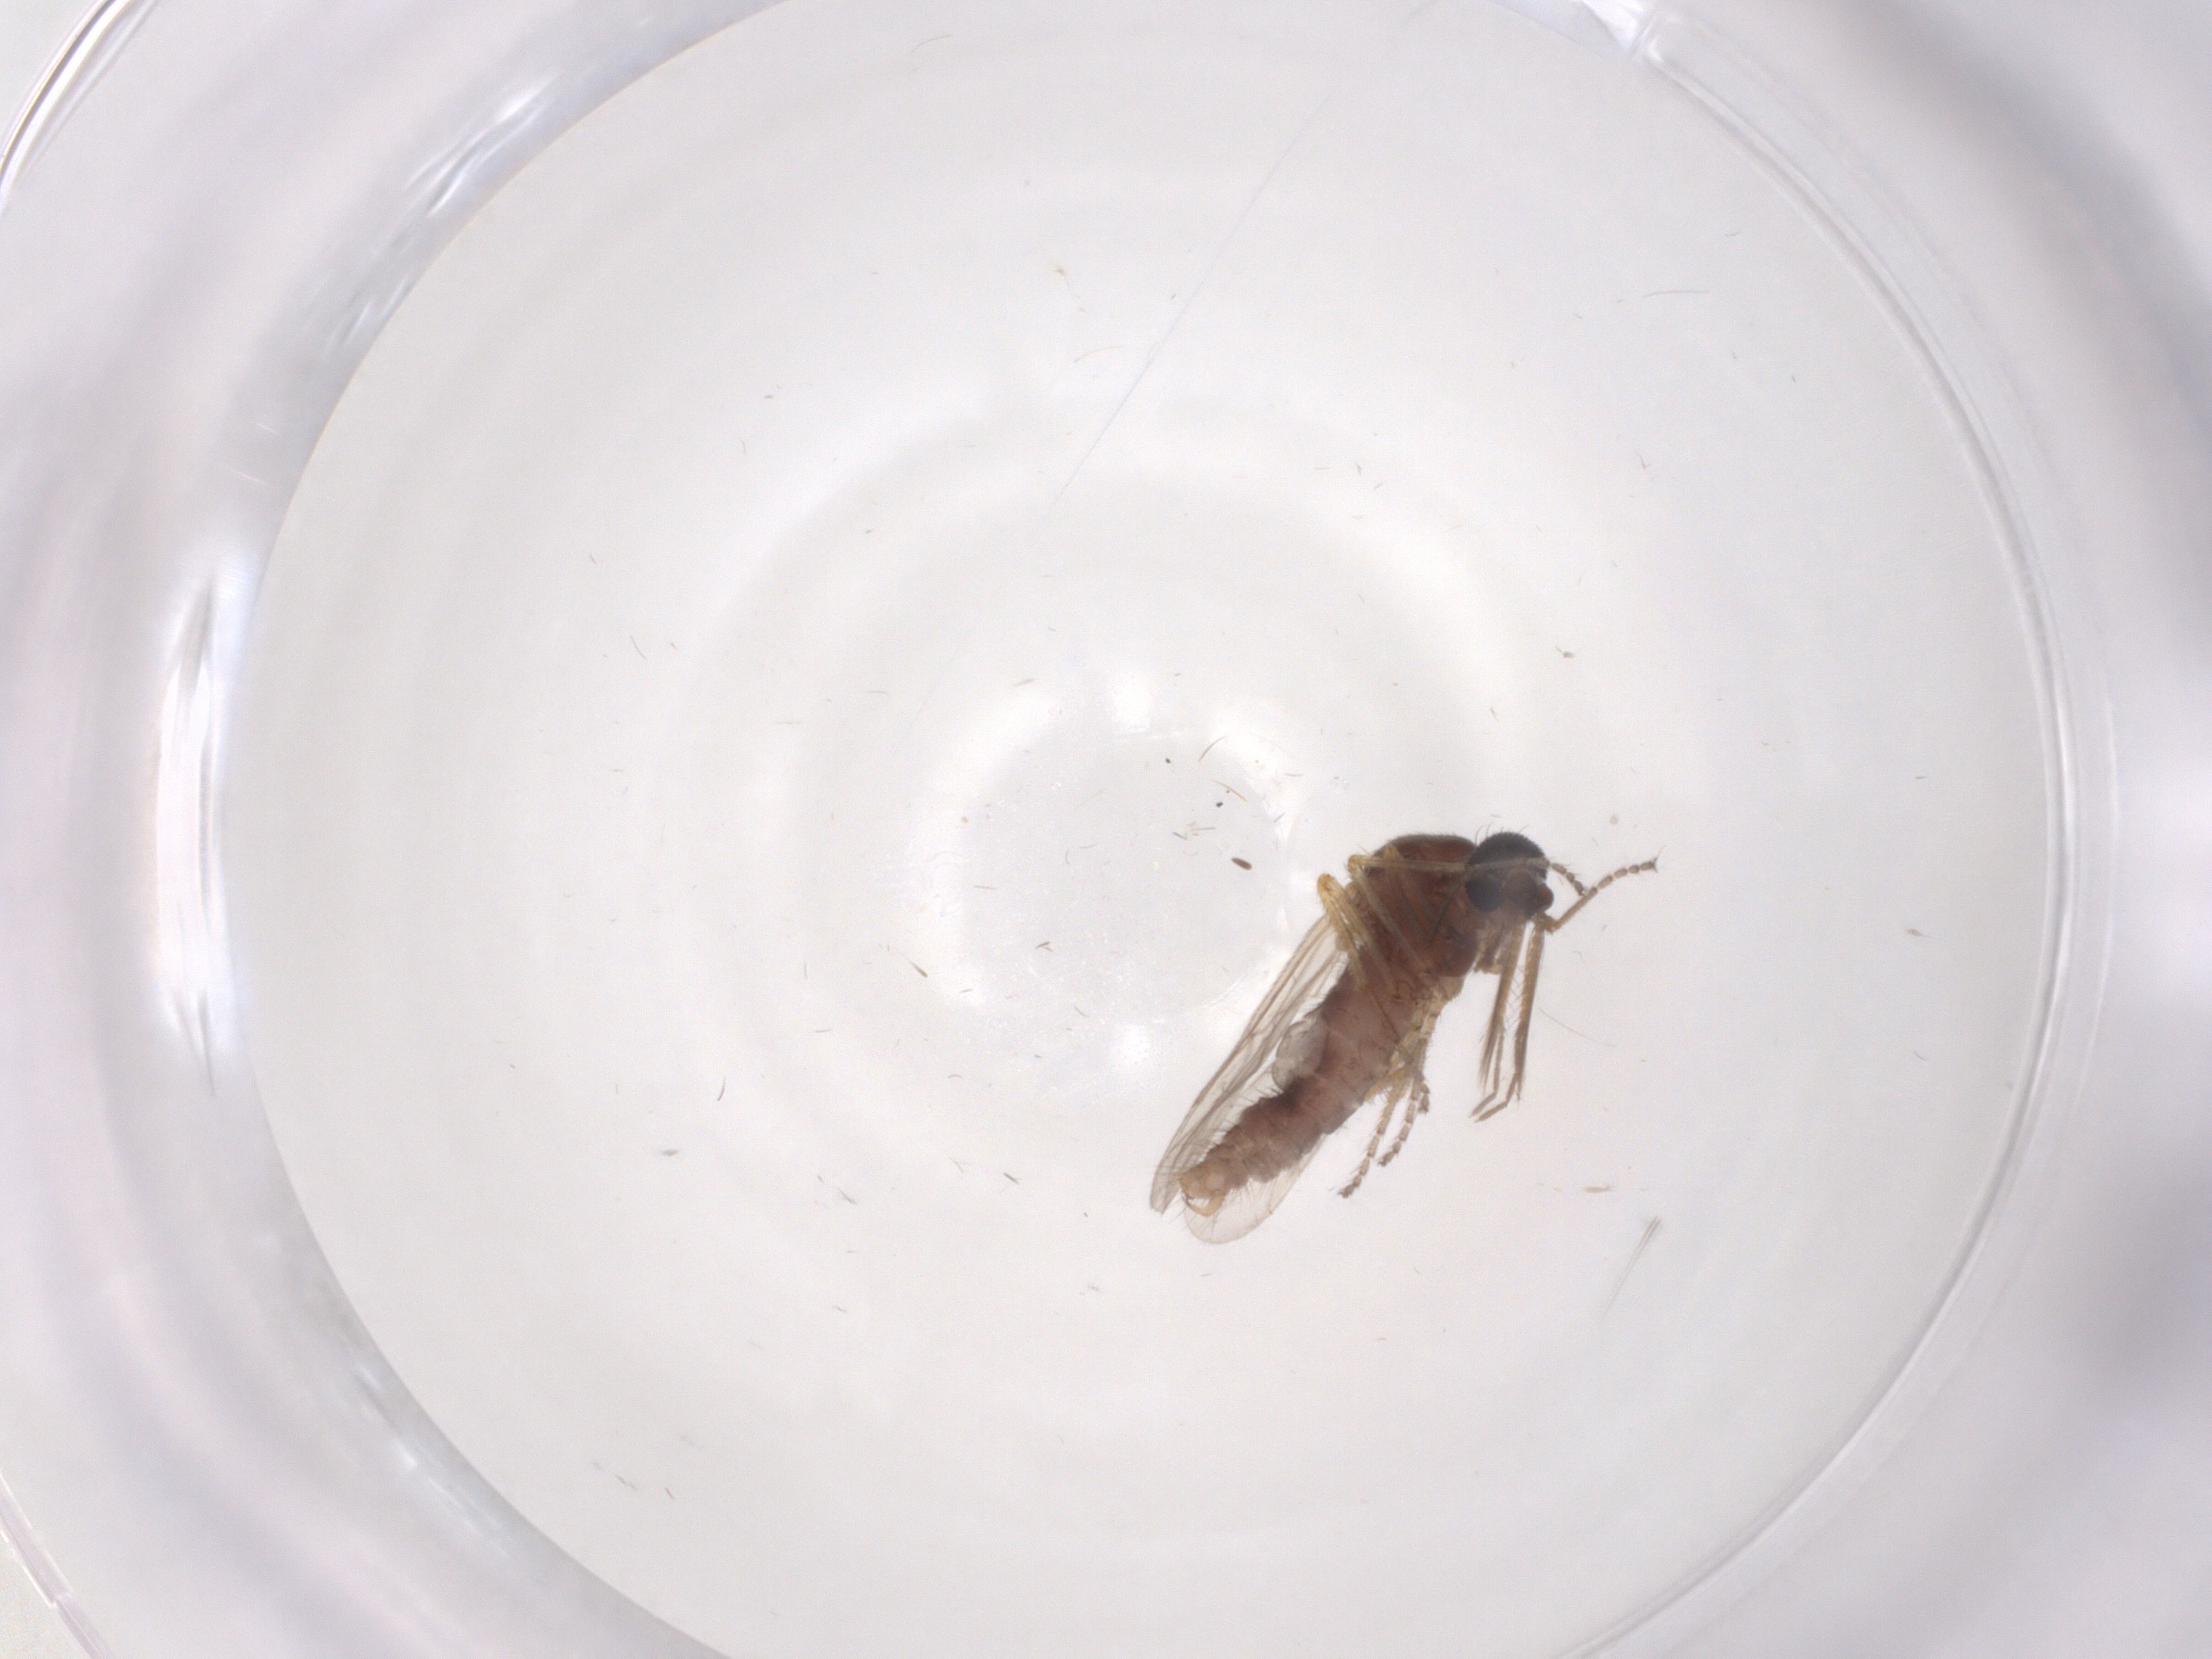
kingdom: Animalia
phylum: Arthropoda
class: Insecta
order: Diptera
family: Ceratopogonidae
